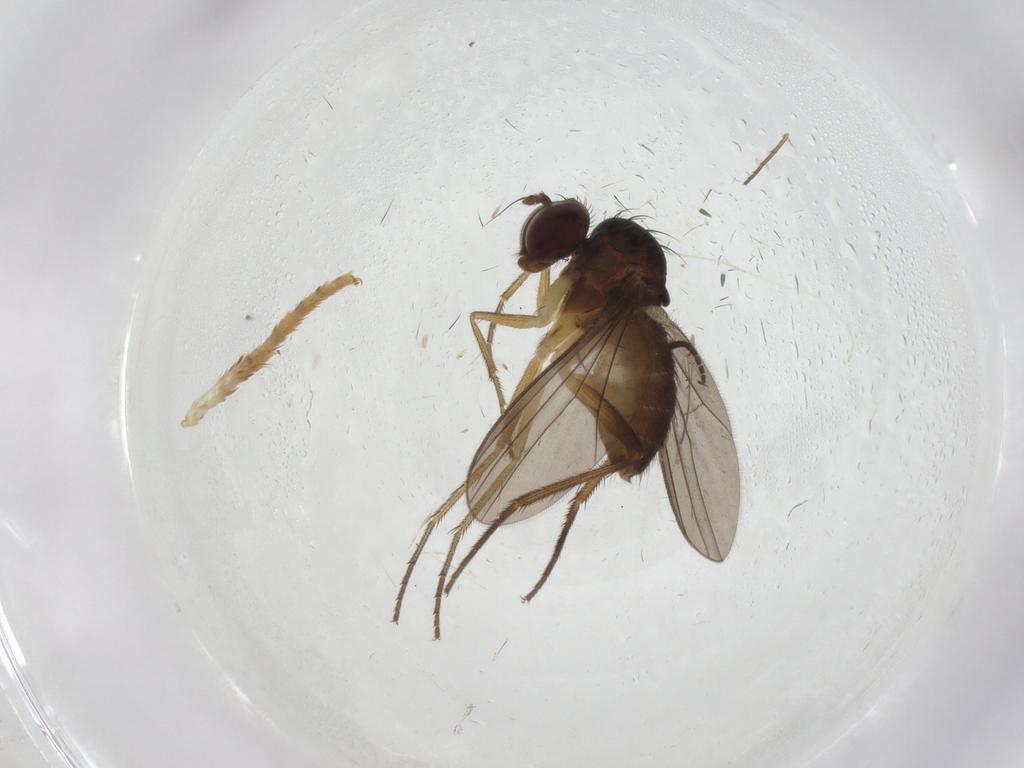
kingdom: Animalia
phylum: Arthropoda
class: Insecta
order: Diptera
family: Dolichopodidae
